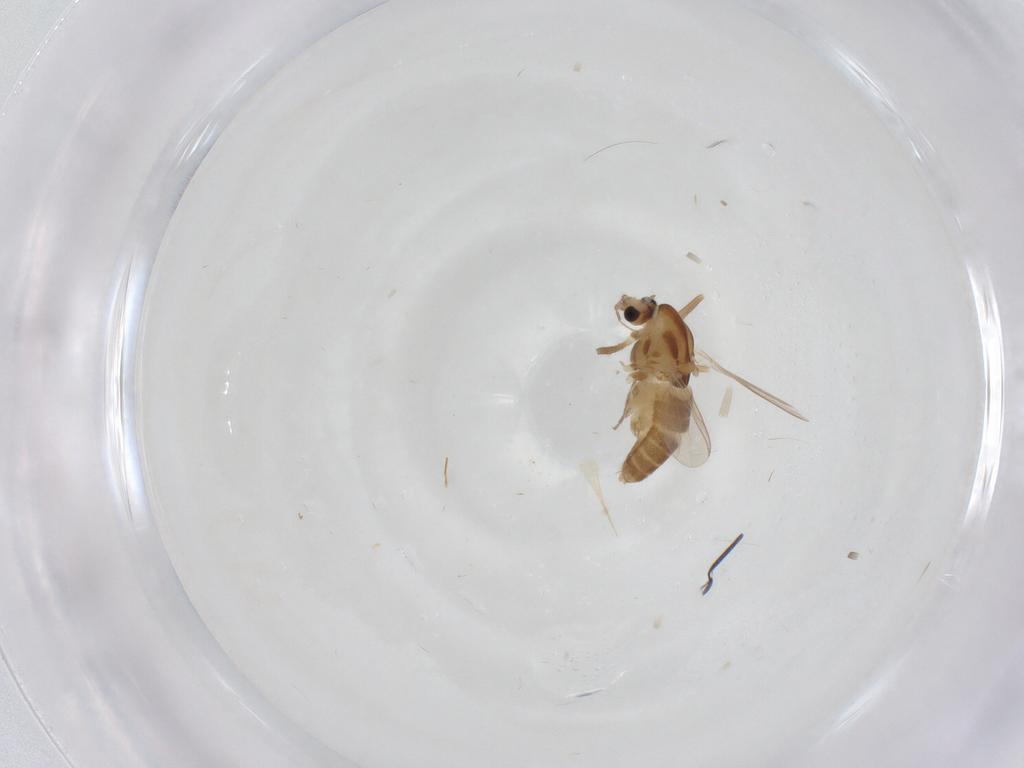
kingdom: Animalia
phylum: Arthropoda
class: Insecta
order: Diptera
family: Chironomidae
